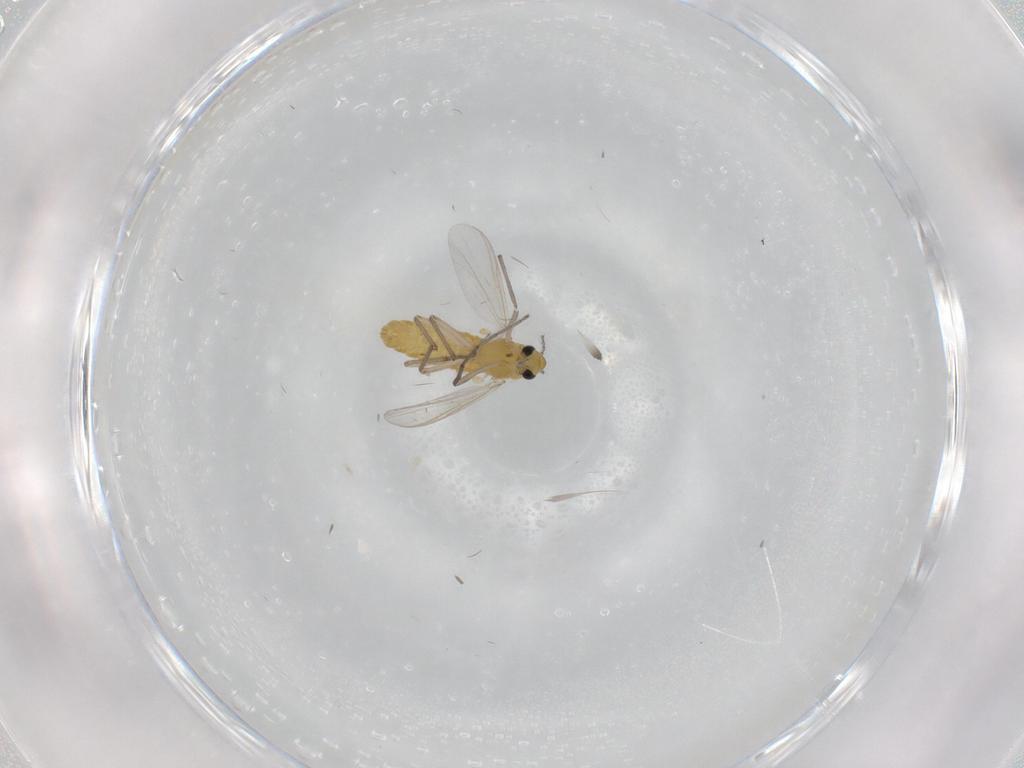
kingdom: Animalia
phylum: Arthropoda
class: Insecta
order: Diptera
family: Chironomidae
